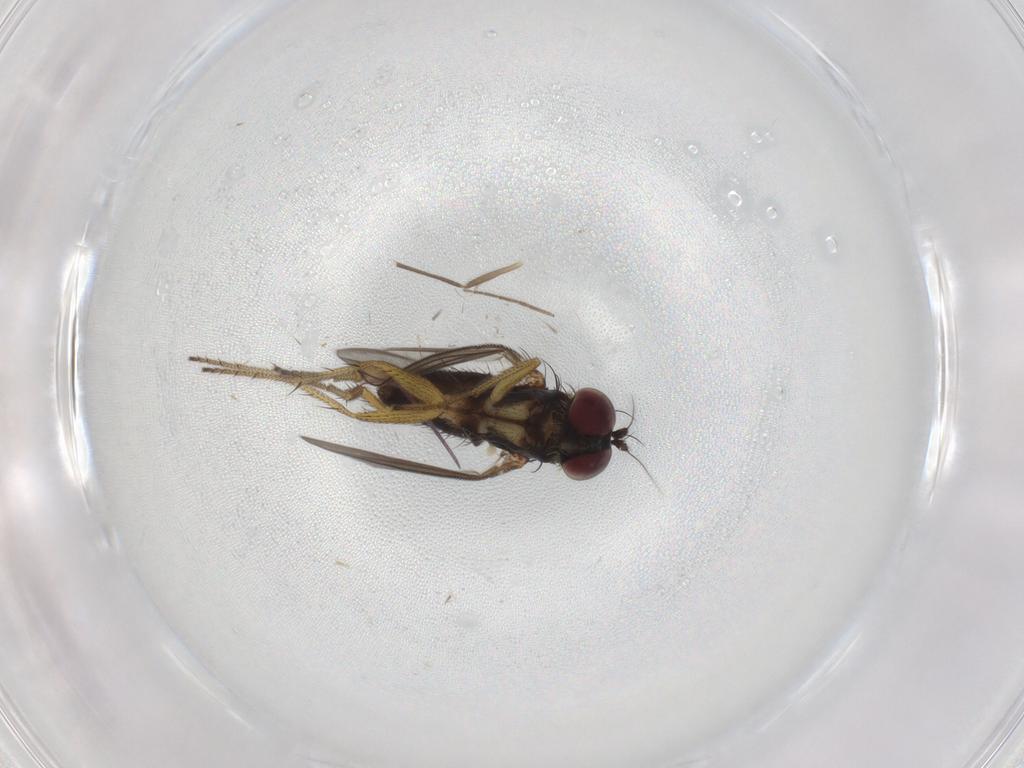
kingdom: Animalia
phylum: Arthropoda
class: Insecta
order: Diptera
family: Chironomidae
